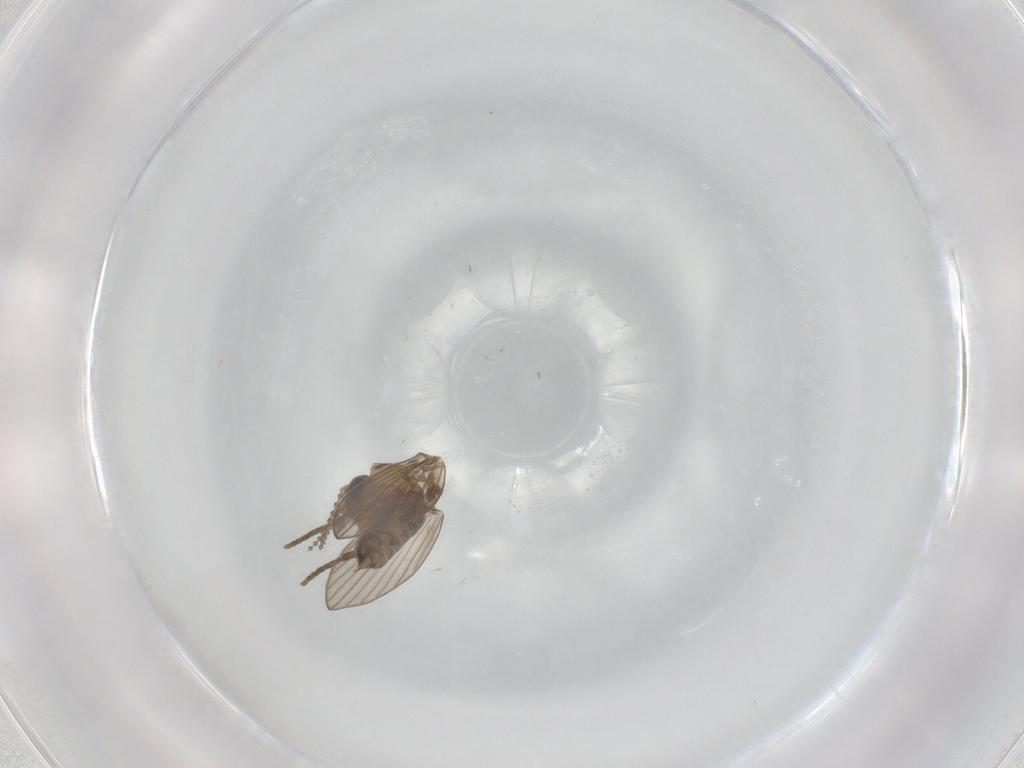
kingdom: Animalia
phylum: Arthropoda
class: Insecta
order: Diptera
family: Psychodidae
